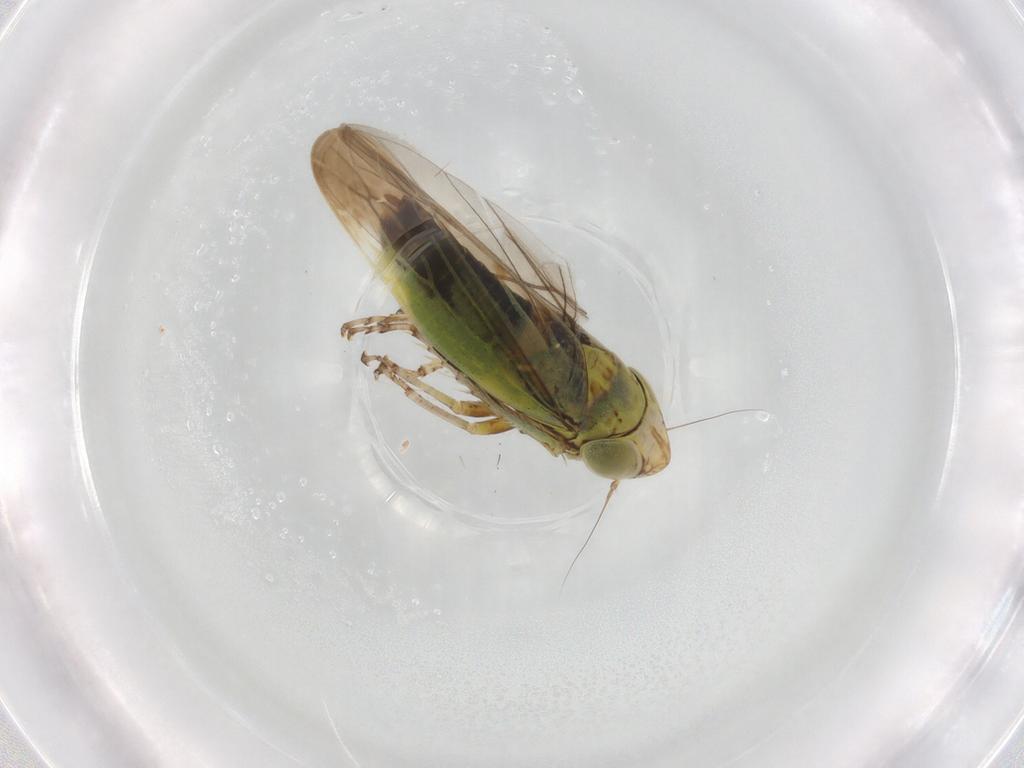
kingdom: Animalia
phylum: Arthropoda
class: Insecta
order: Hemiptera
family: Cicadellidae
